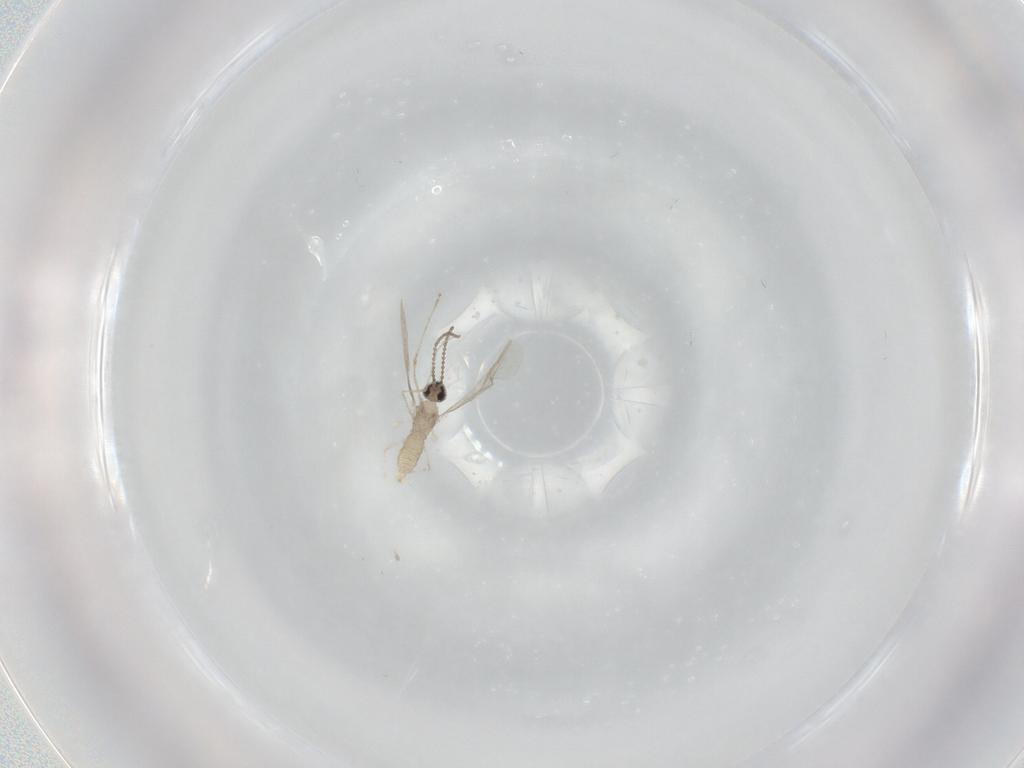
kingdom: Animalia
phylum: Arthropoda
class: Insecta
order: Diptera
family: Cecidomyiidae
